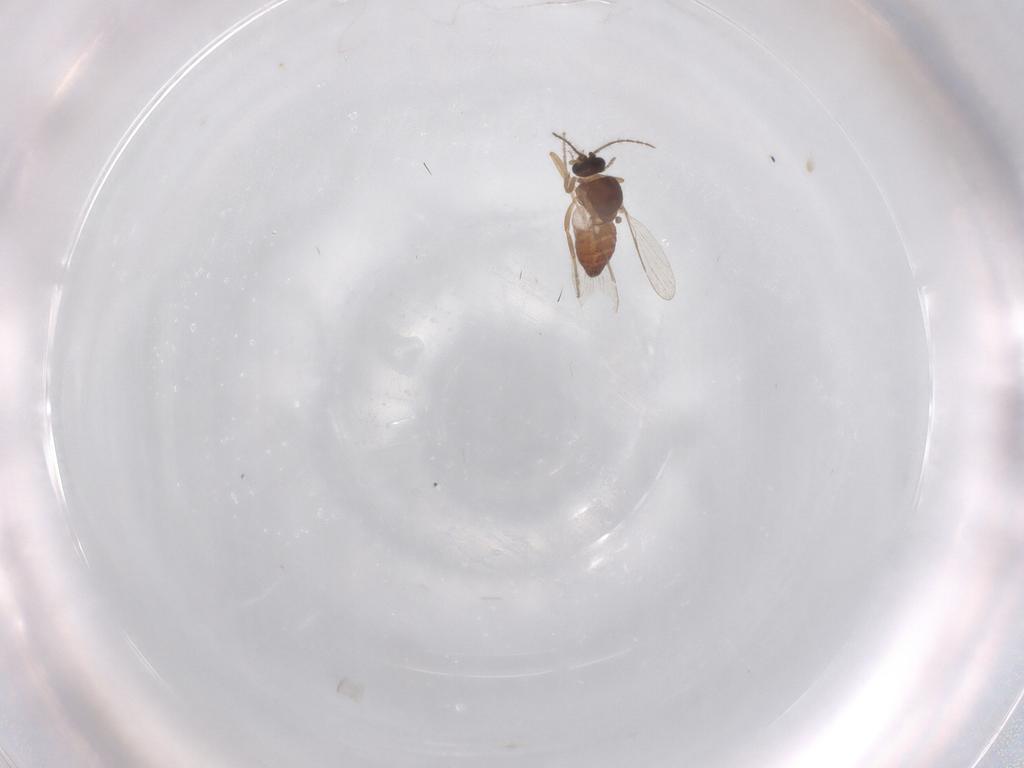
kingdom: Animalia
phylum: Arthropoda
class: Insecta
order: Diptera
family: Ceratopogonidae
